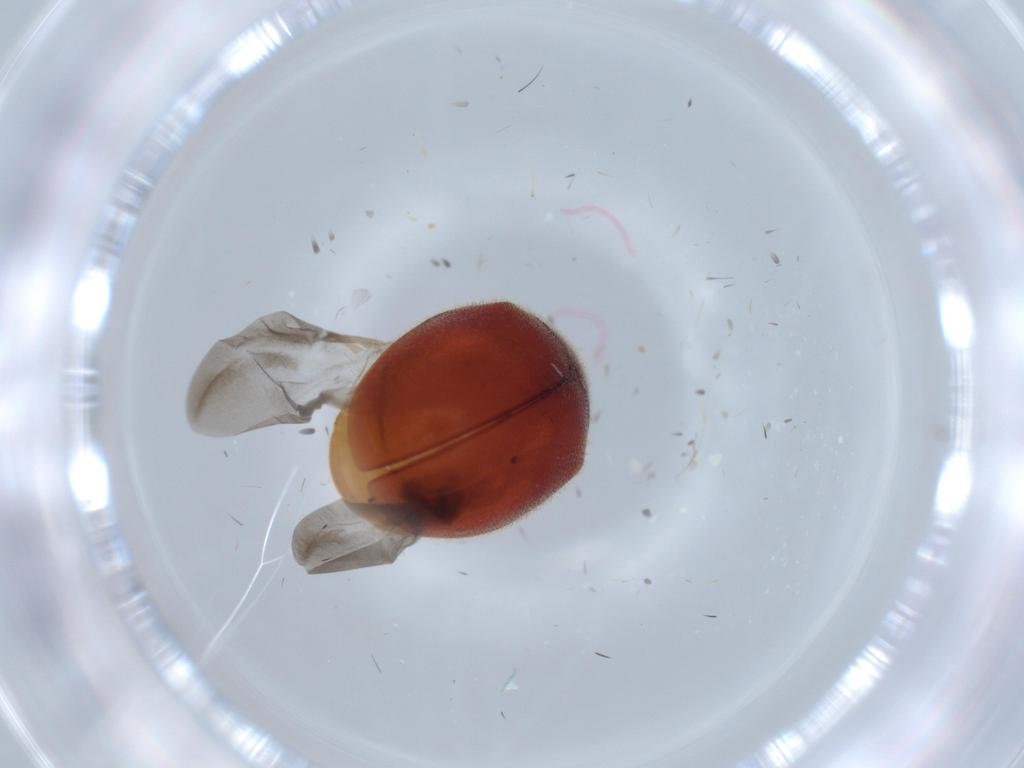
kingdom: Animalia
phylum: Arthropoda
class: Insecta
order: Coleoptera
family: Coccinellidae
